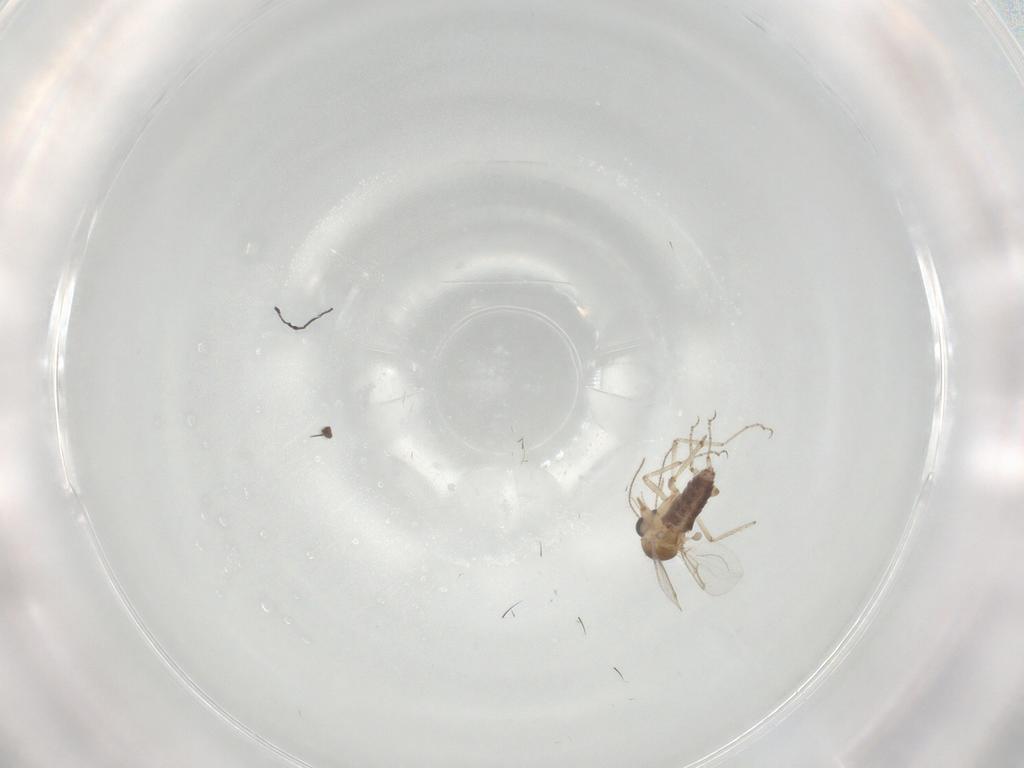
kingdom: Animalia
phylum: Arthropoda
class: Insecta
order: Diptera
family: Ceratopogonidae
